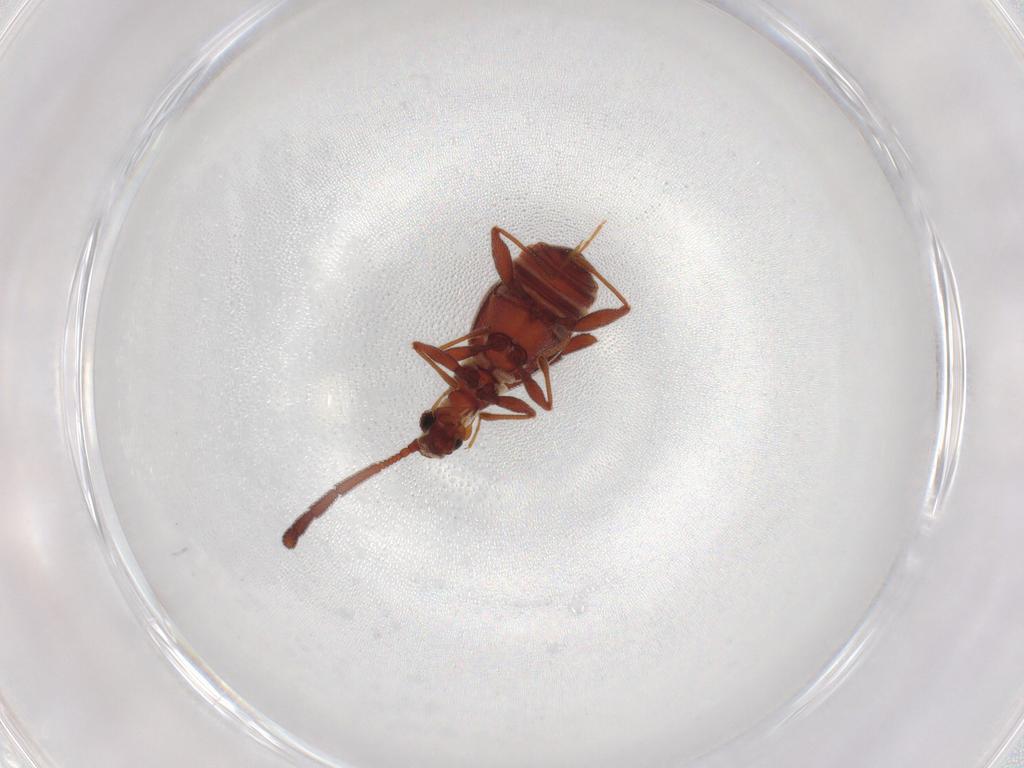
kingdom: Animalia
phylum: Arthropoda
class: Insecta
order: Coleoptera
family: Staphylinidae
